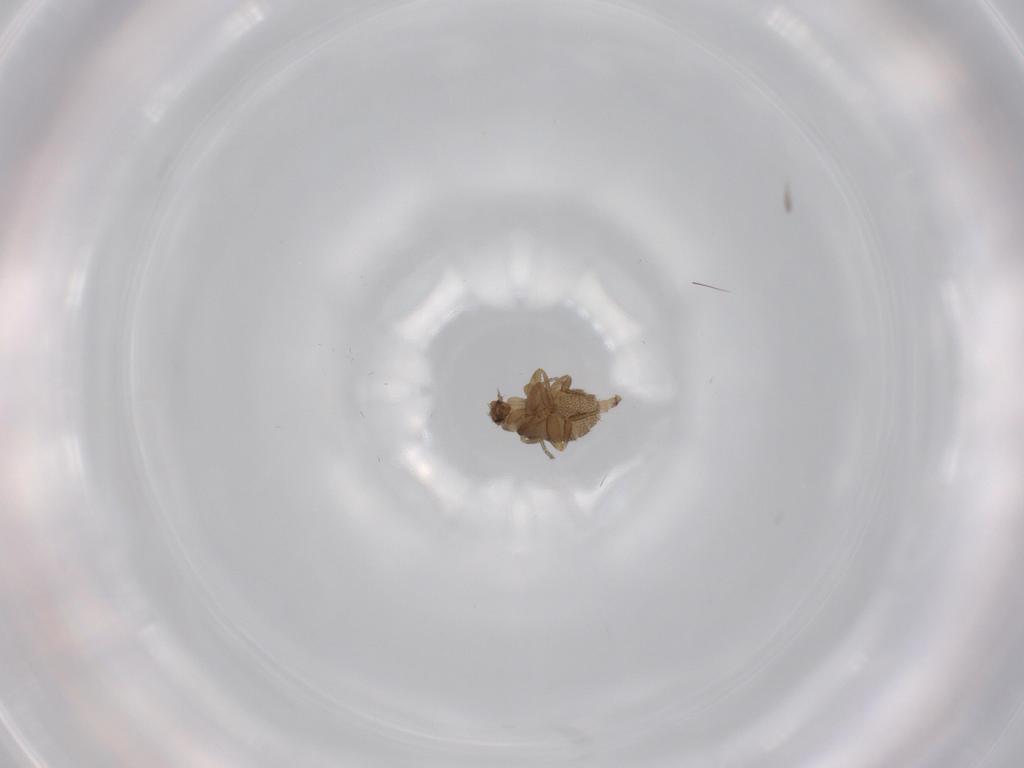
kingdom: Animalia
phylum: Arthropoda
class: Insecta
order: Diptera
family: Phoridae
